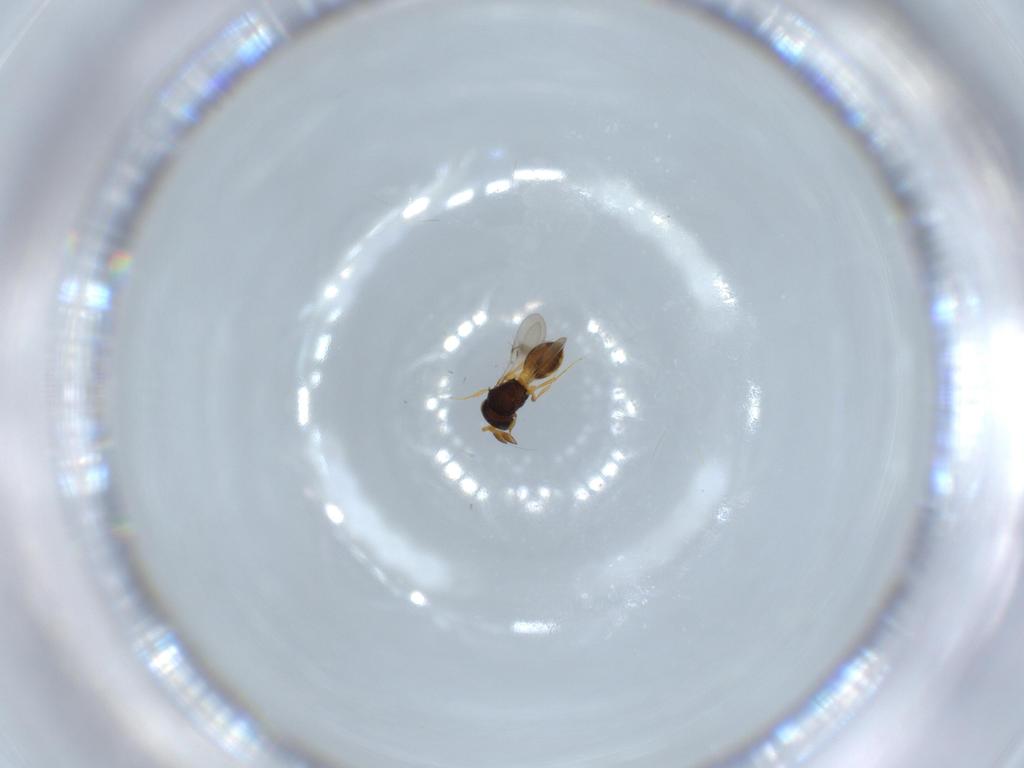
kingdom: Animalia
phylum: Arthropoda
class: Insecta
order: Hymenoptera
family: Scelionidae
